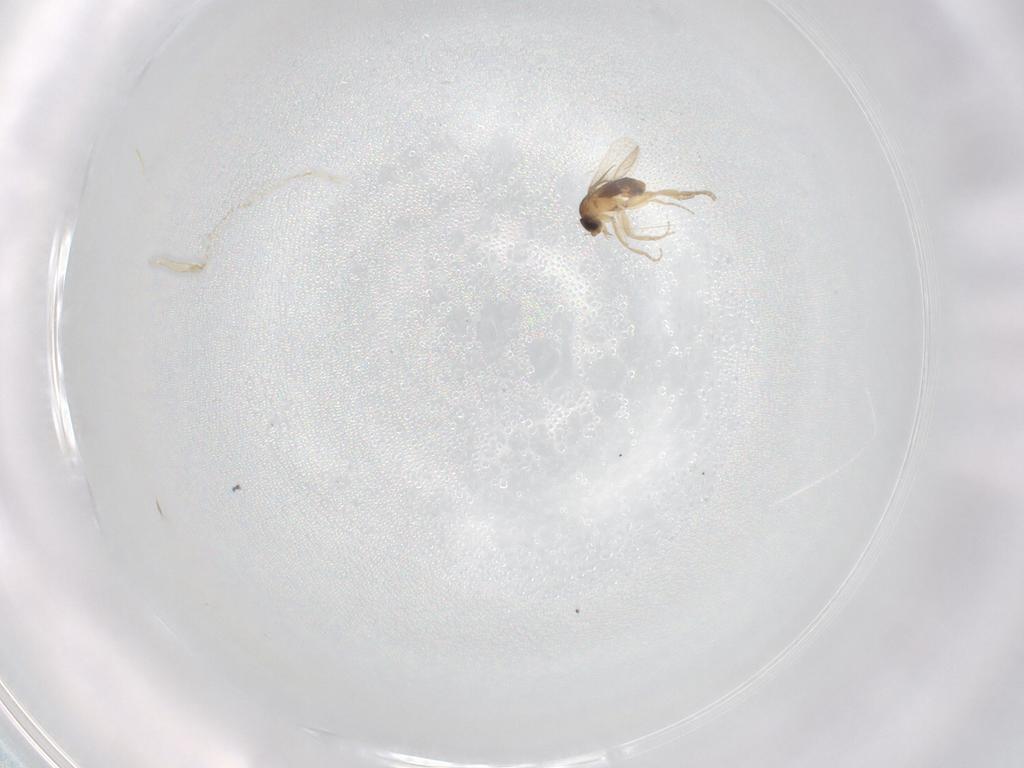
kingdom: Animalia
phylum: Arthropoda
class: Insecta
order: Diptera
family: Phoridae
